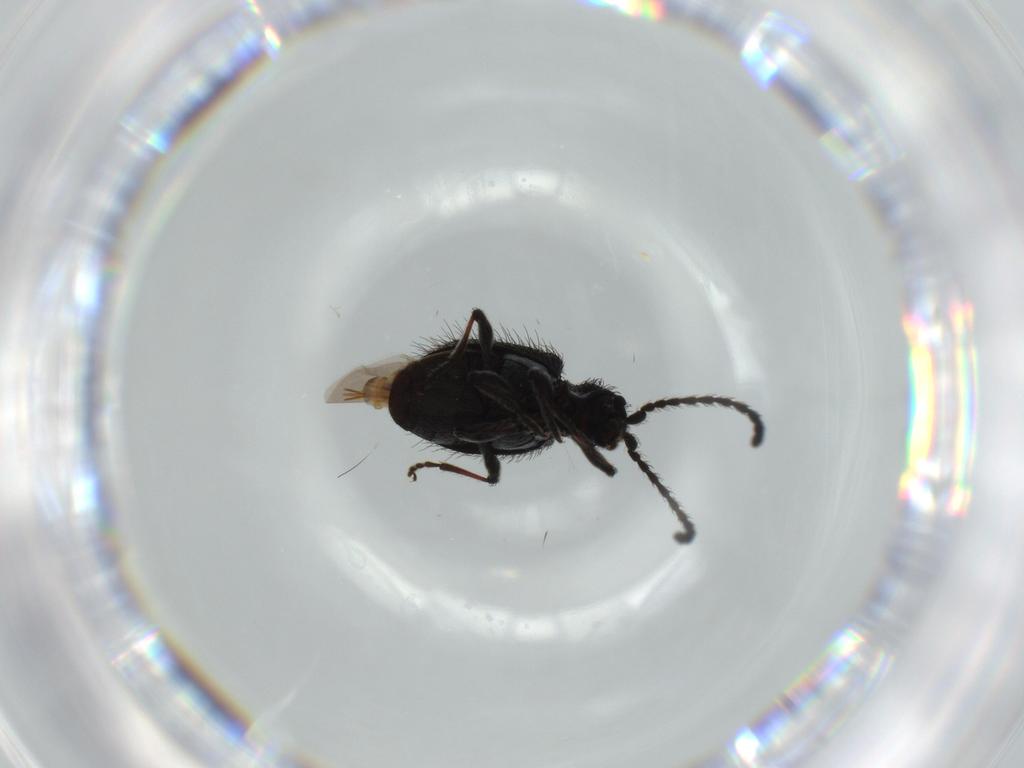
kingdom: Animalia
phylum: Arthropoda
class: Insecta
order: Coleoptera
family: Ptinidae
